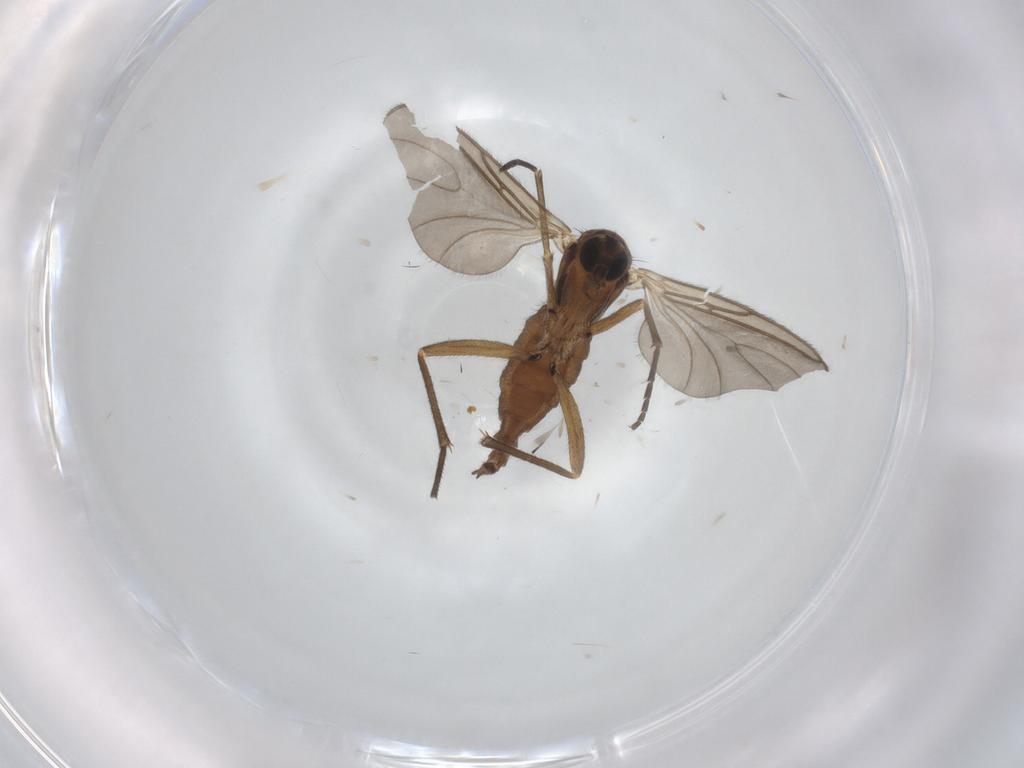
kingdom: Animalia
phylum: Arthropoda
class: Insecta
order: Diptera
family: Sciaridae
